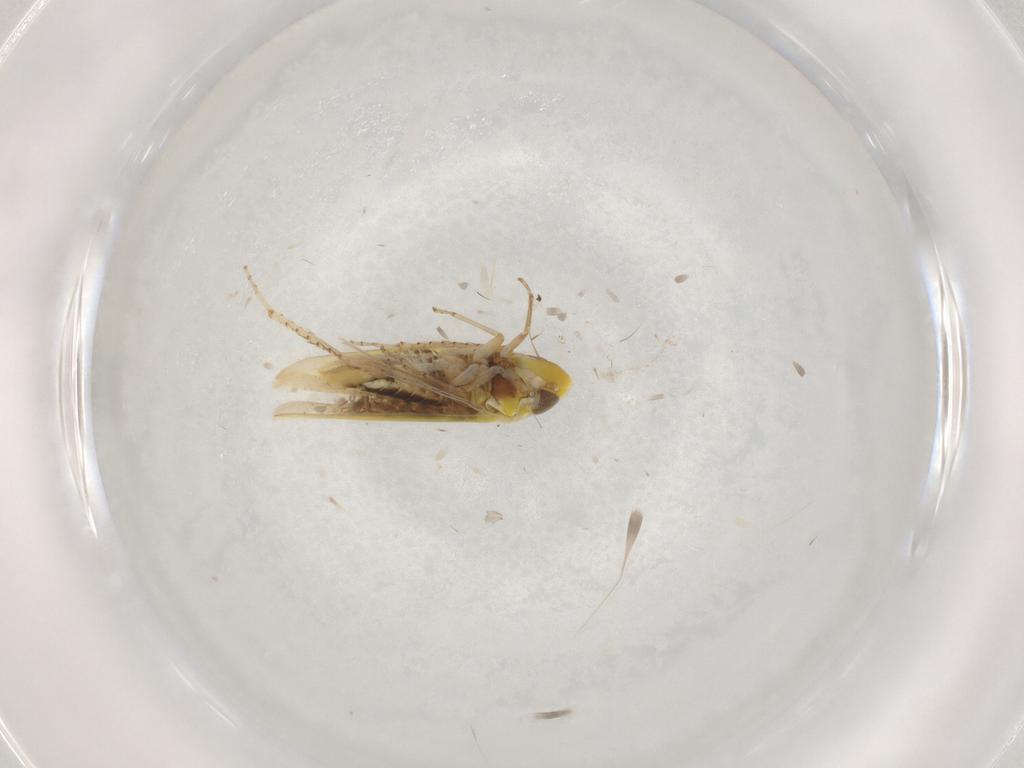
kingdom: Animalia
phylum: Arthropoda
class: Insecta
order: Hemiptera
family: Cicadellidae
